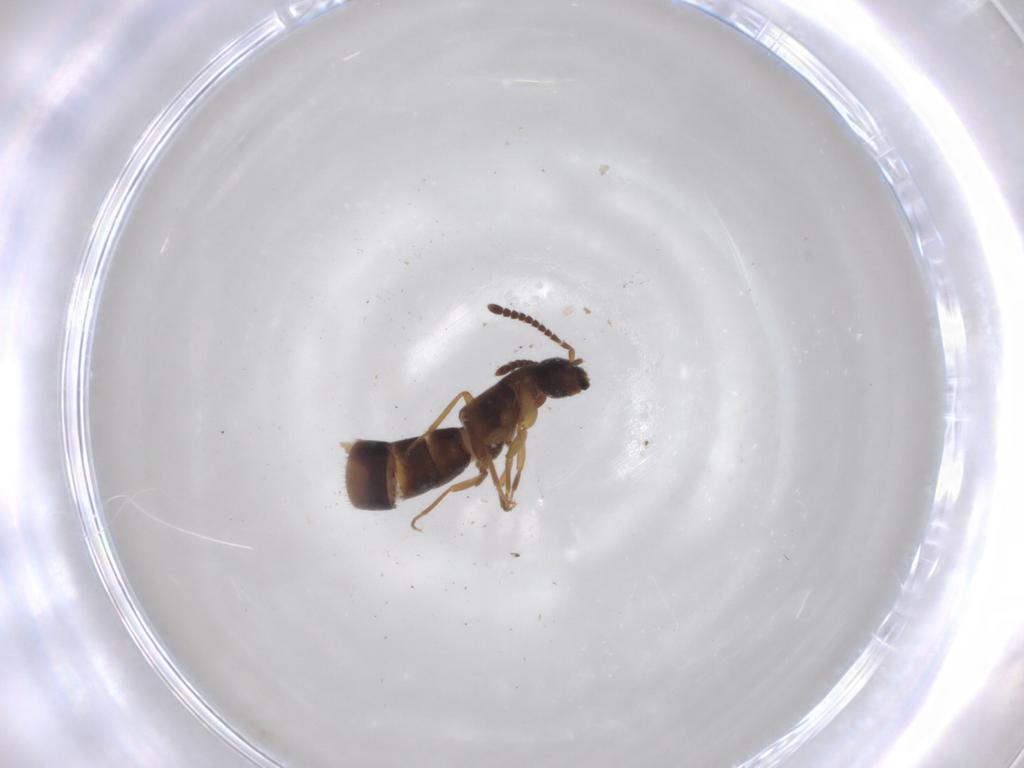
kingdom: Animalia
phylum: Arthropoda
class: Insecta
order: Coleoptera
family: Staphylinidae
